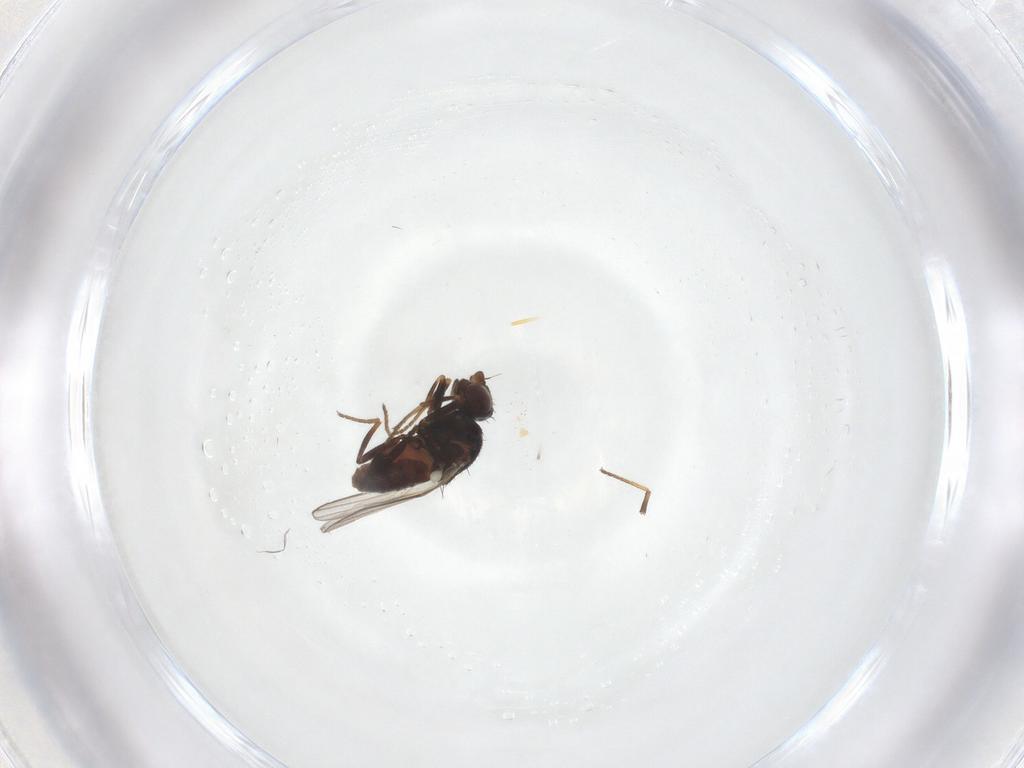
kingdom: Animalia
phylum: Arthropoda
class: Insecta
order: Diptera
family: Chloropidae
